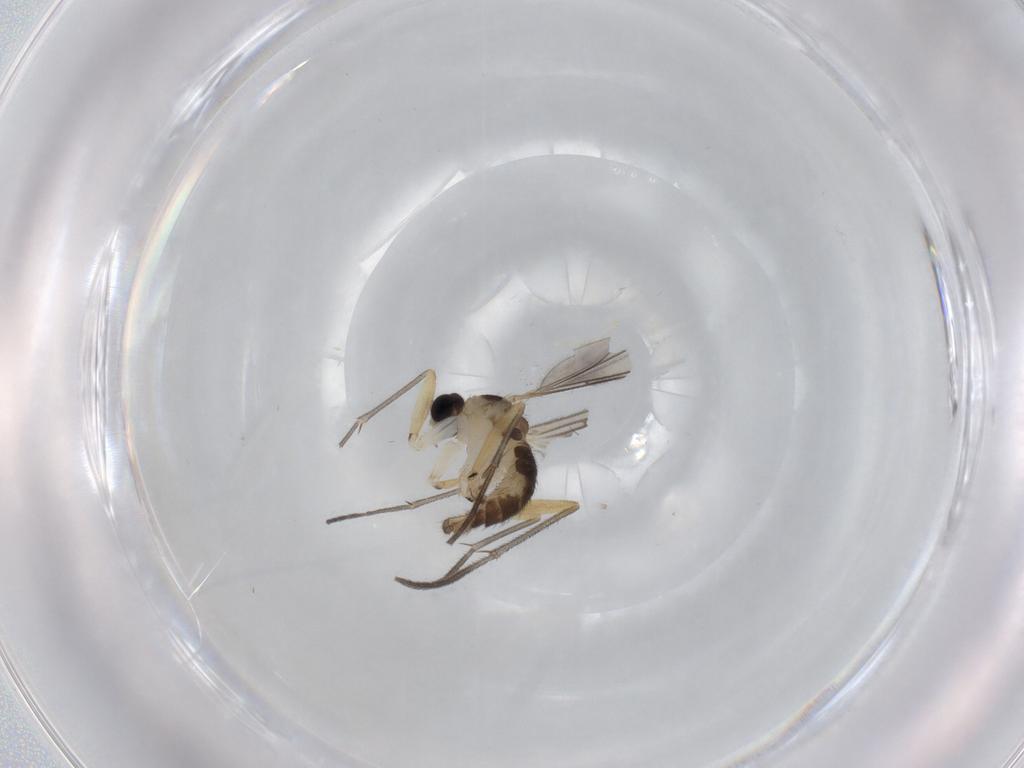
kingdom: Animalia
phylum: Arthropoda
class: Insecta
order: Diptera
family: Sciaridae
